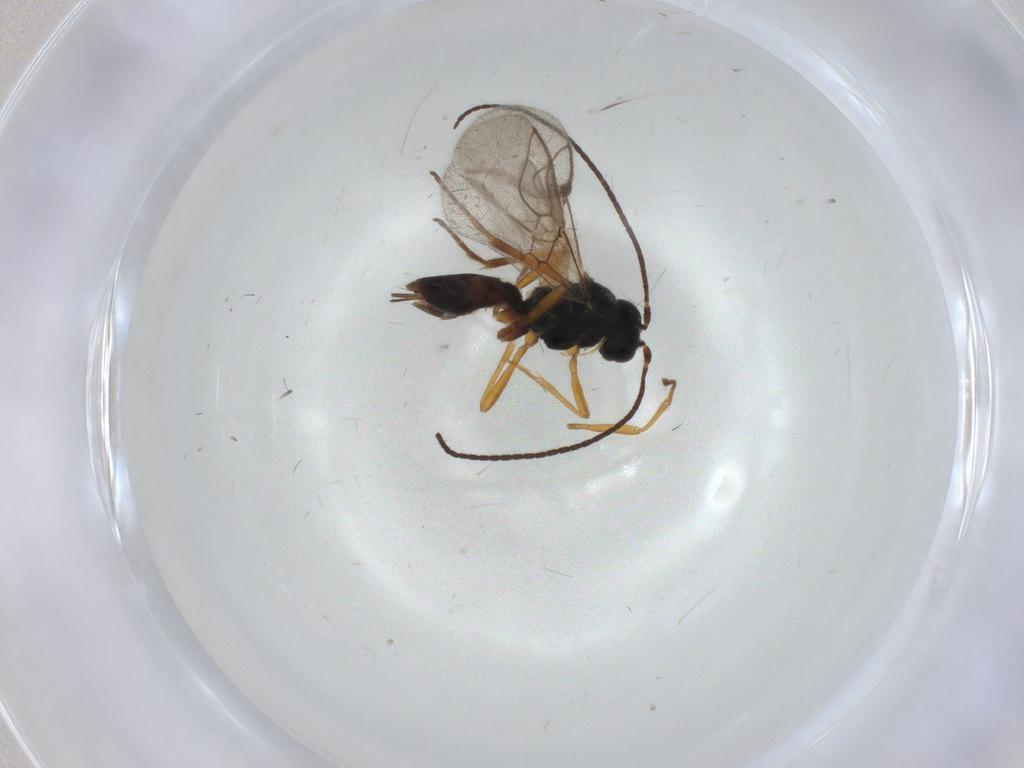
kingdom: Animalia
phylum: Arthropoda
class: Insecta
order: Hymenoptera
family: Braconidae
